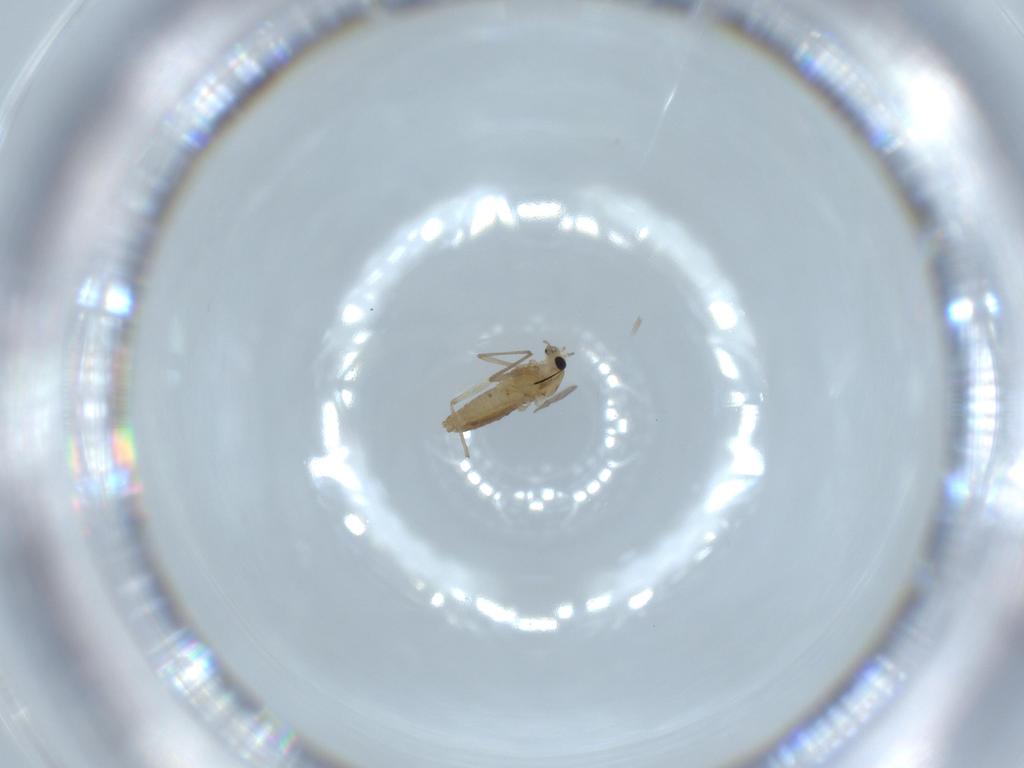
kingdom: Animalia
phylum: Arthropoda
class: Insecta
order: Diptera
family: Chironomidae
